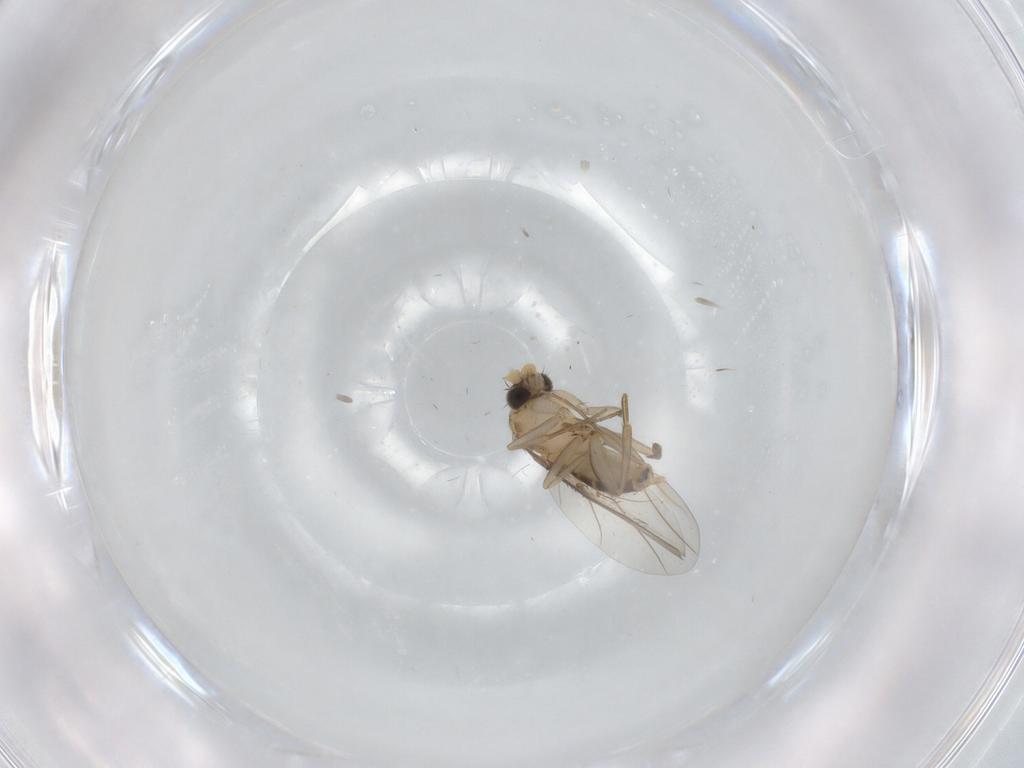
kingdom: Animalia
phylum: Arthropoda
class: Insecta
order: Diptera
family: Phoridae
